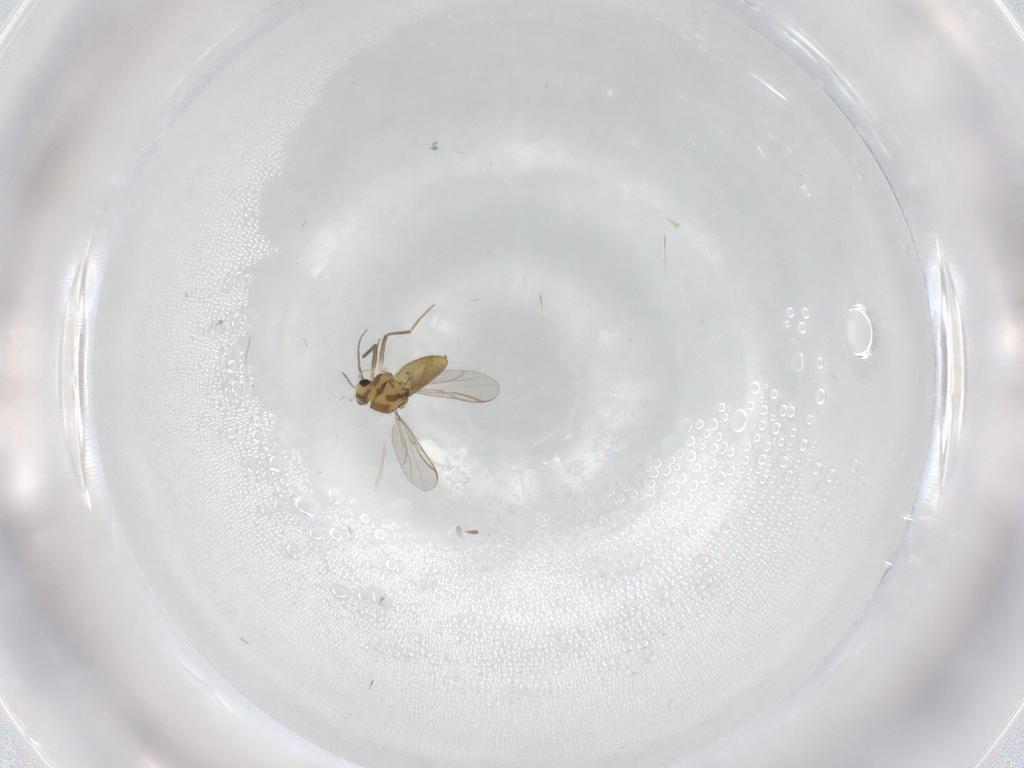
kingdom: Animalia
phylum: Arthropoda
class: Insecta
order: Diptera
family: Chironomidae
